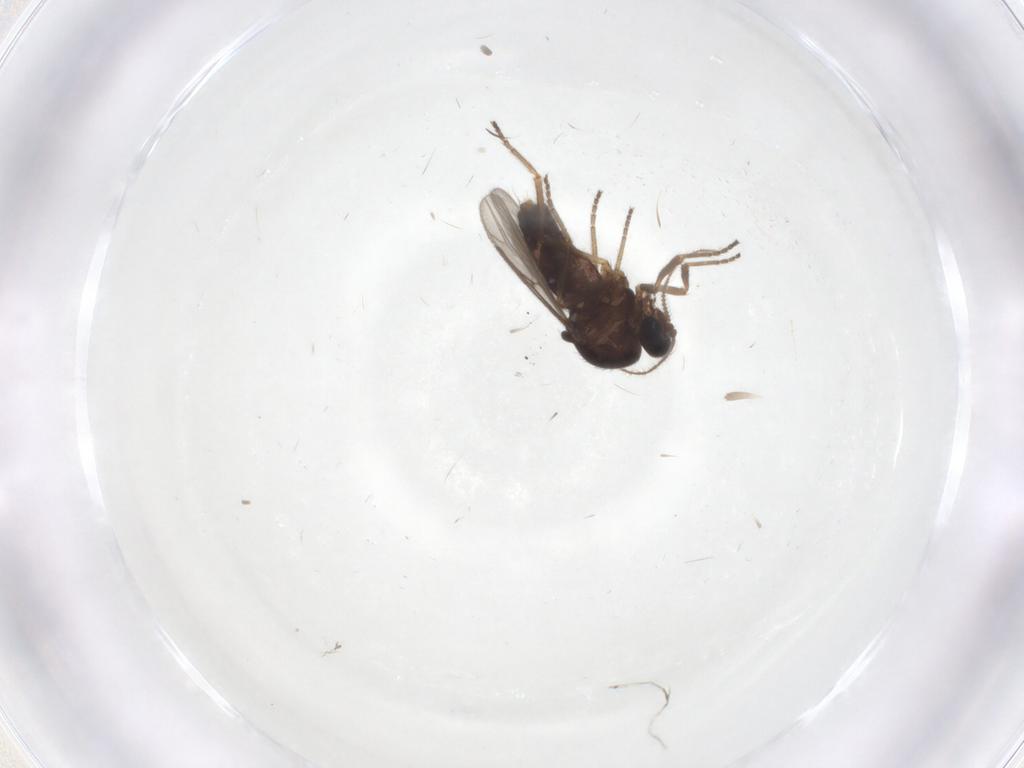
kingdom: Animalia
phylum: Arthropoda
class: Insecta
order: Diptera
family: Ceratopogonidae
